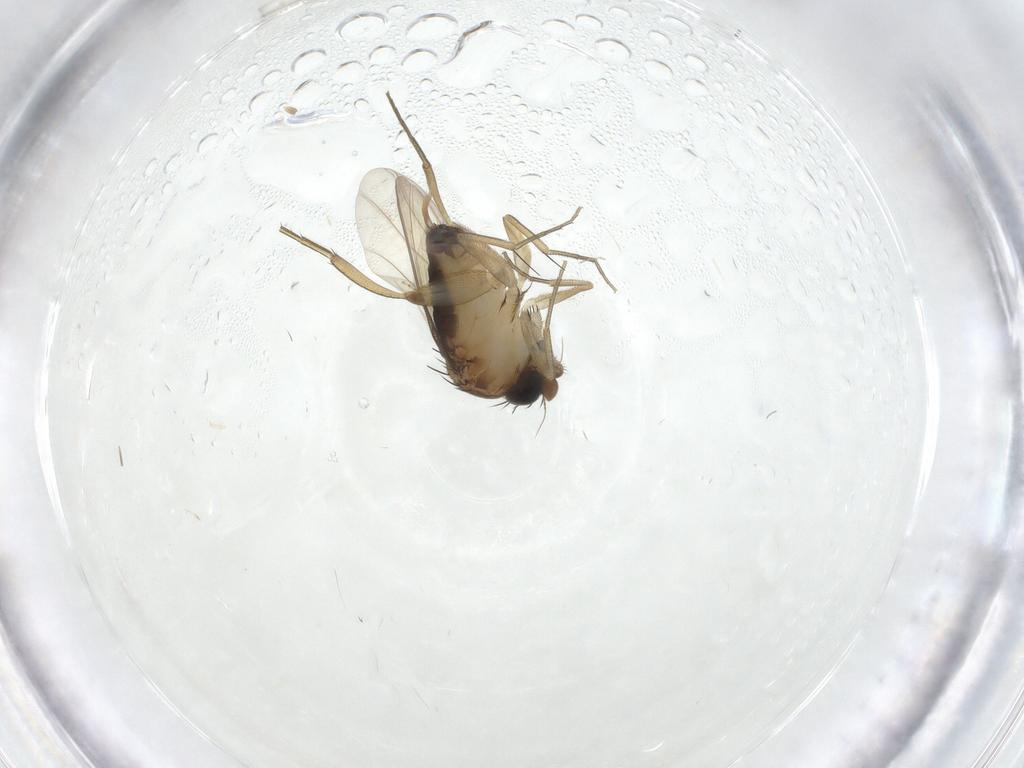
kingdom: Animalia
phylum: Arthropoda
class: Insecta
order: Diptera
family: Phoridae
